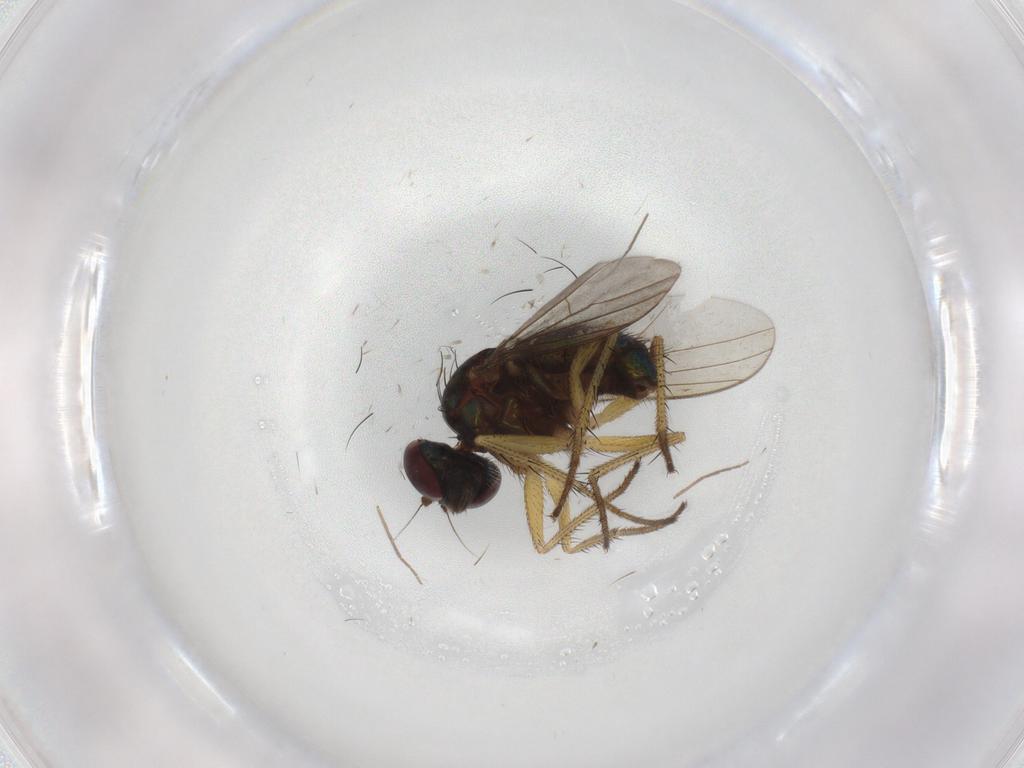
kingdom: Animalia
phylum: Arthropoda
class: Insecta
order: Diptera
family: Dolichopodidae
